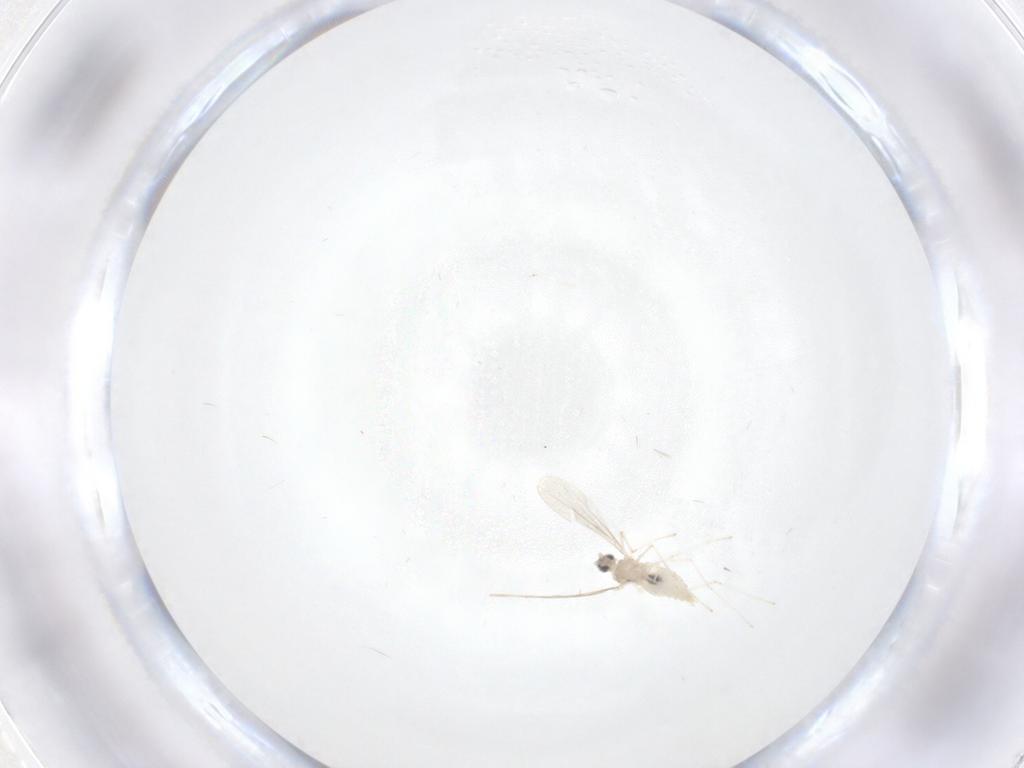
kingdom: Animalia
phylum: Arthropoda
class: Insecta
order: Diptera
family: Cecidomyiidae
